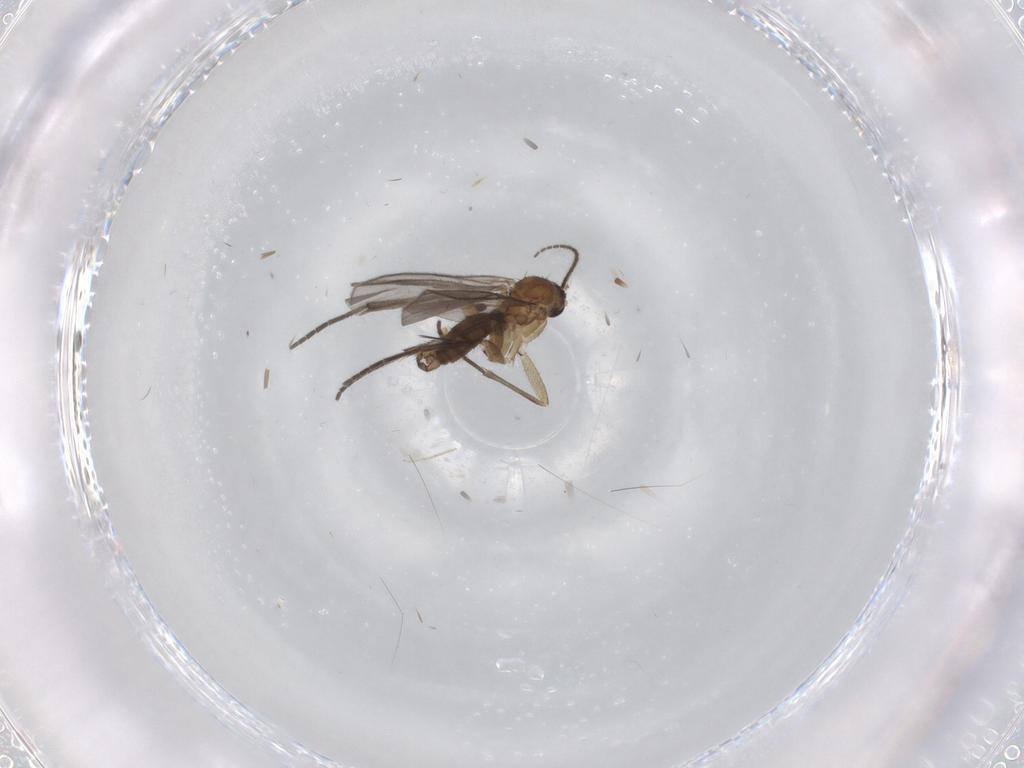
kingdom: Animalia
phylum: Arthropoda
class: Insecta
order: Diptera
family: Sciaridae
